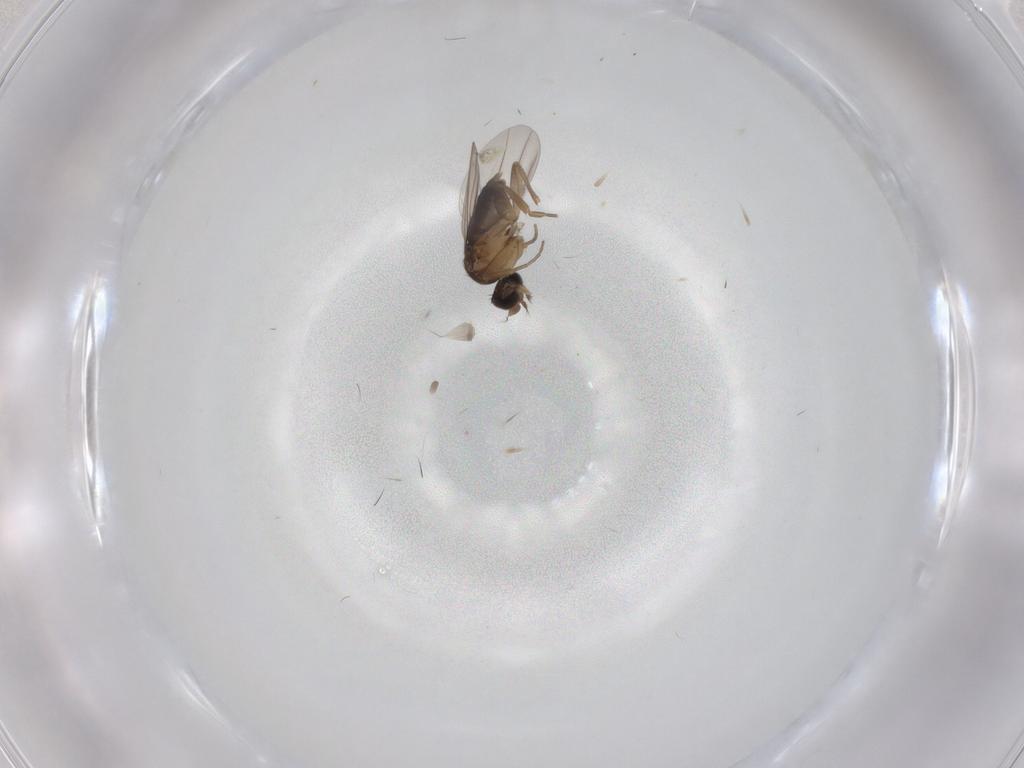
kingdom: Animalia
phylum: Arthropoda
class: Insecta
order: Diptera
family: Phoridae
